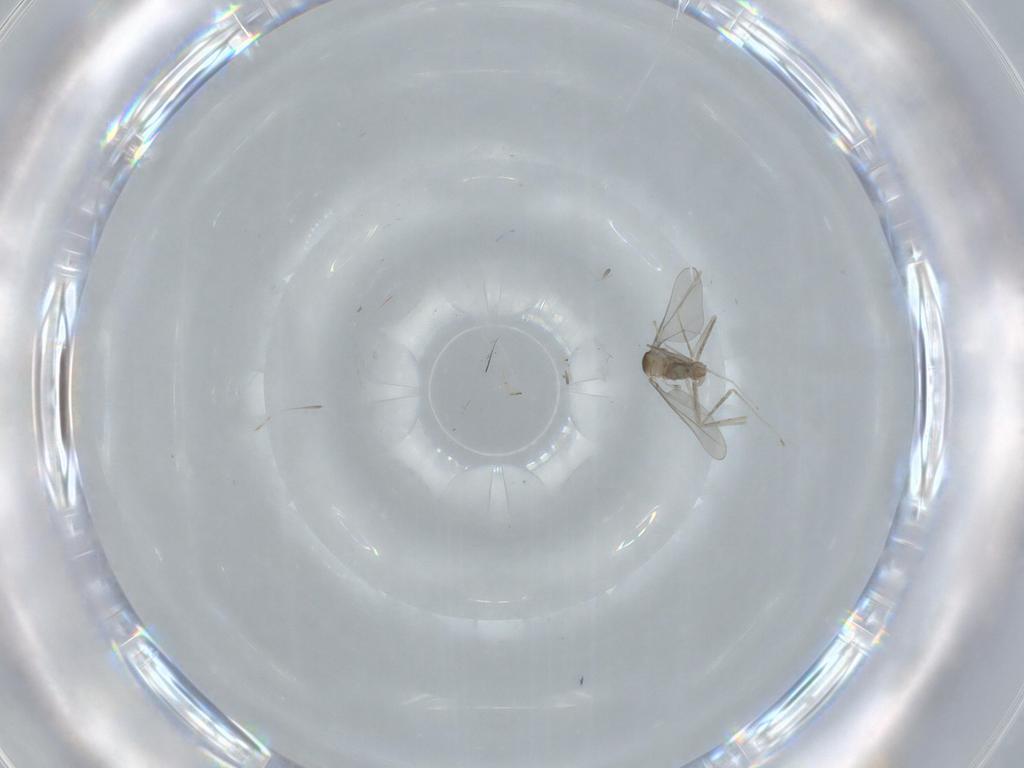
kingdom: Animalia
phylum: Arthropoda
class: Insecta
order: Diptera
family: Cecidomyiidae
